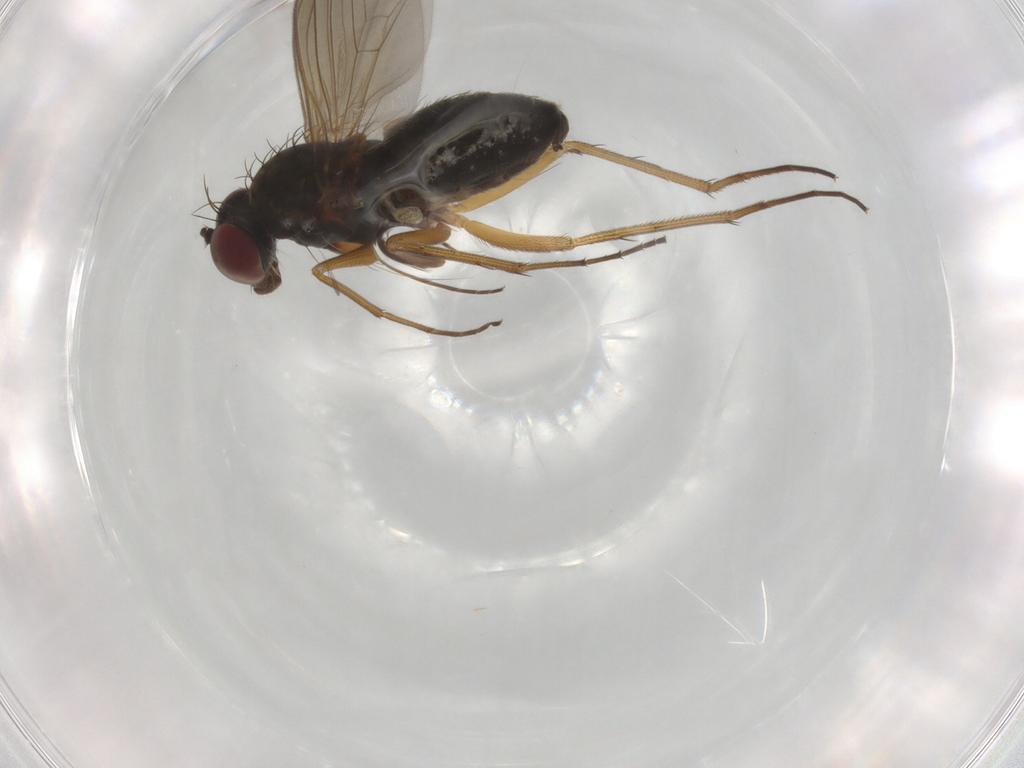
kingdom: Animalia
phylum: Arthropoda
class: Insecta
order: Diptera
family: Dolichopodidae
